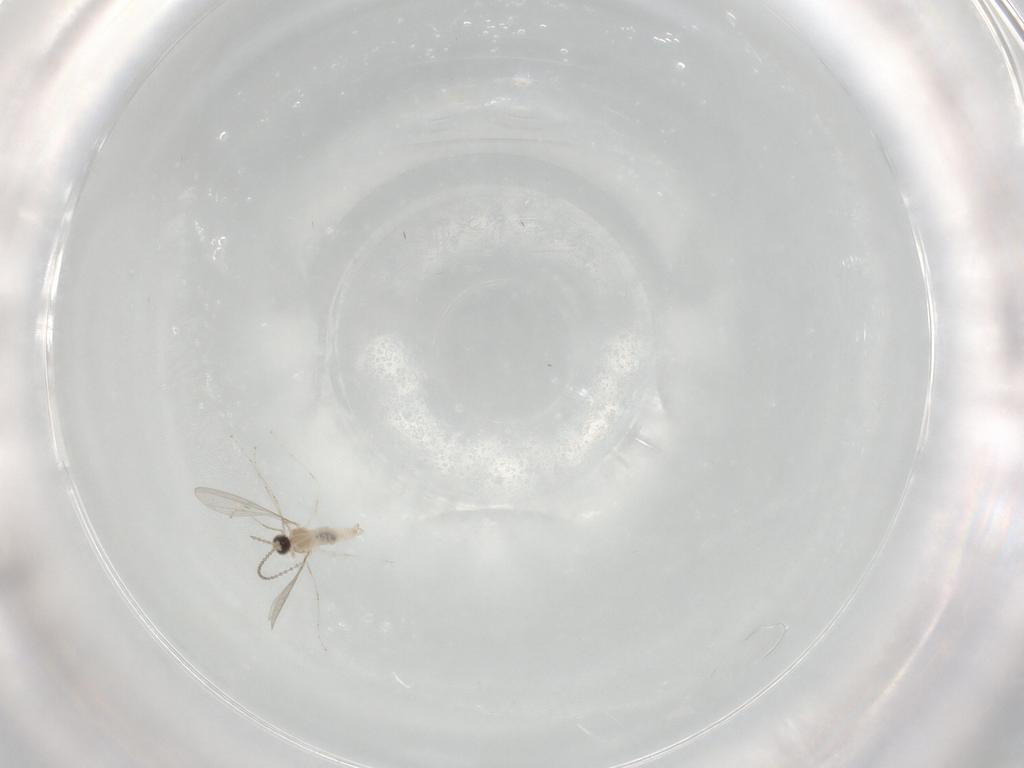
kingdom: Animalia
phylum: Arthropoda
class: Insecta
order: Diptera
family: Cecidomyiidae
